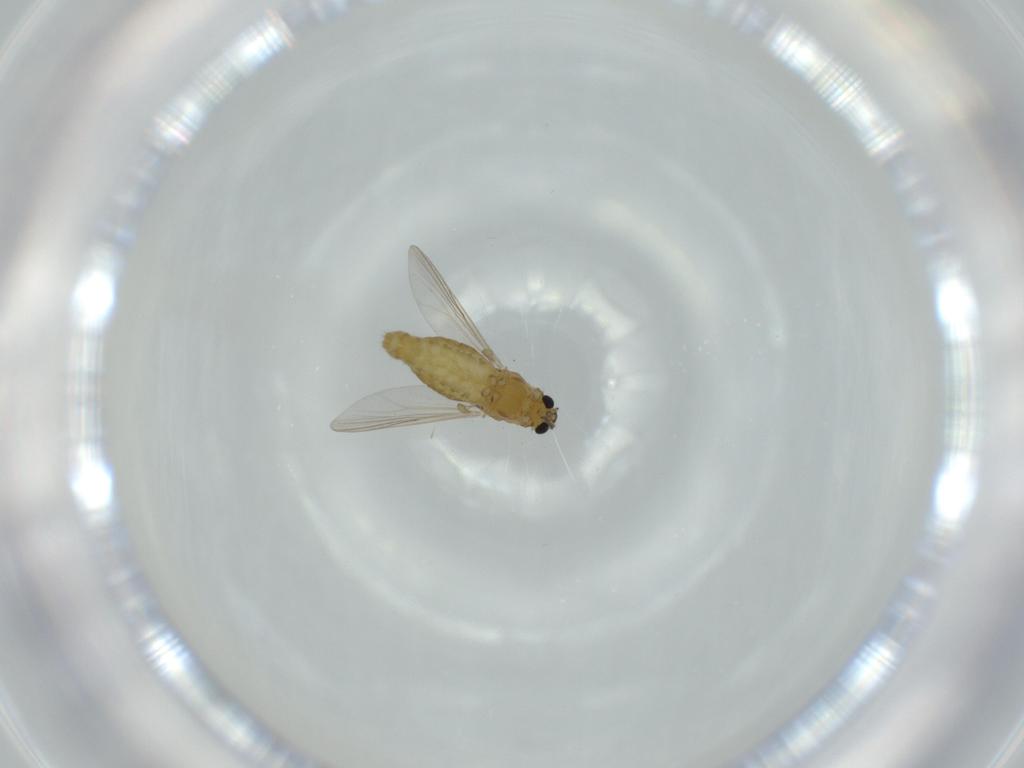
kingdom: Animalia
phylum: Arthropoda
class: Insecta
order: Diptera
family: Chironomidae
